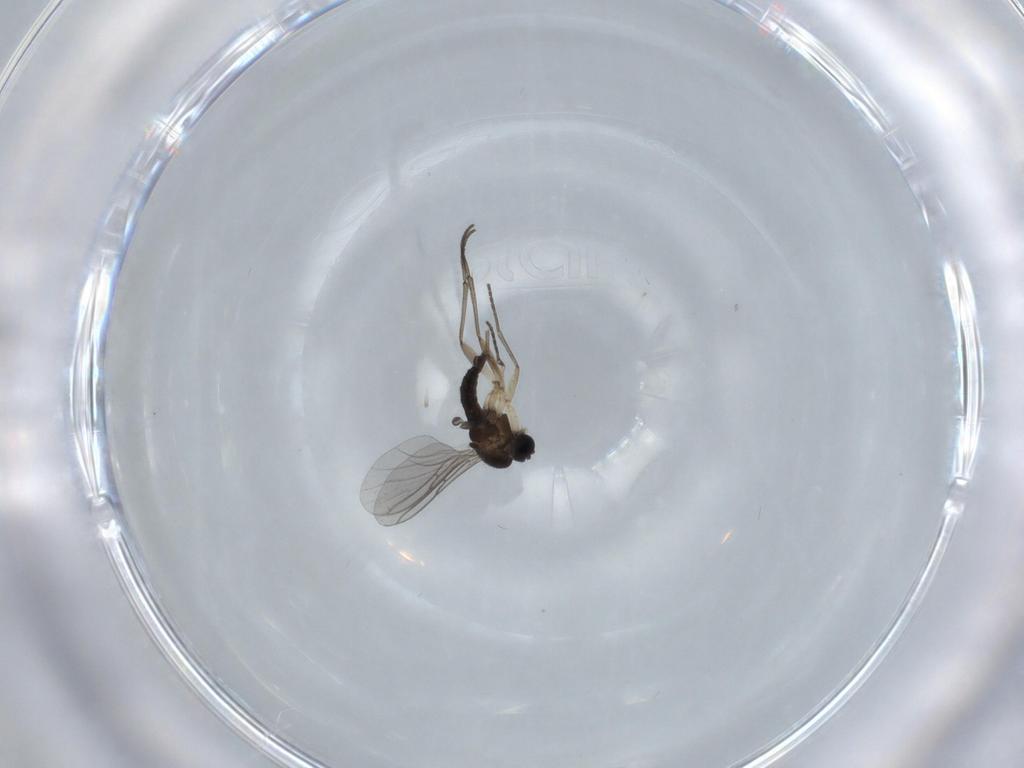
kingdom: Animalia
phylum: Arthropoda
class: Insecta
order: Diptera
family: Sciaridae
